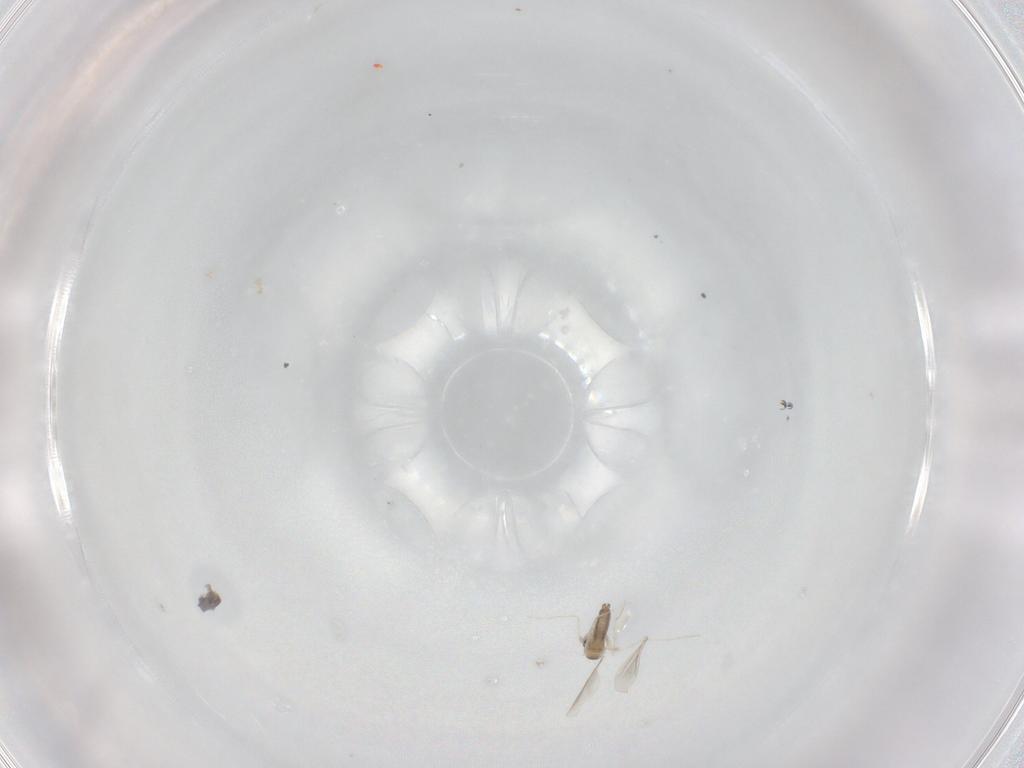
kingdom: Animalia
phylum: Arthropoda
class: Insecta
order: Diptera
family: Cecidomyiidae
